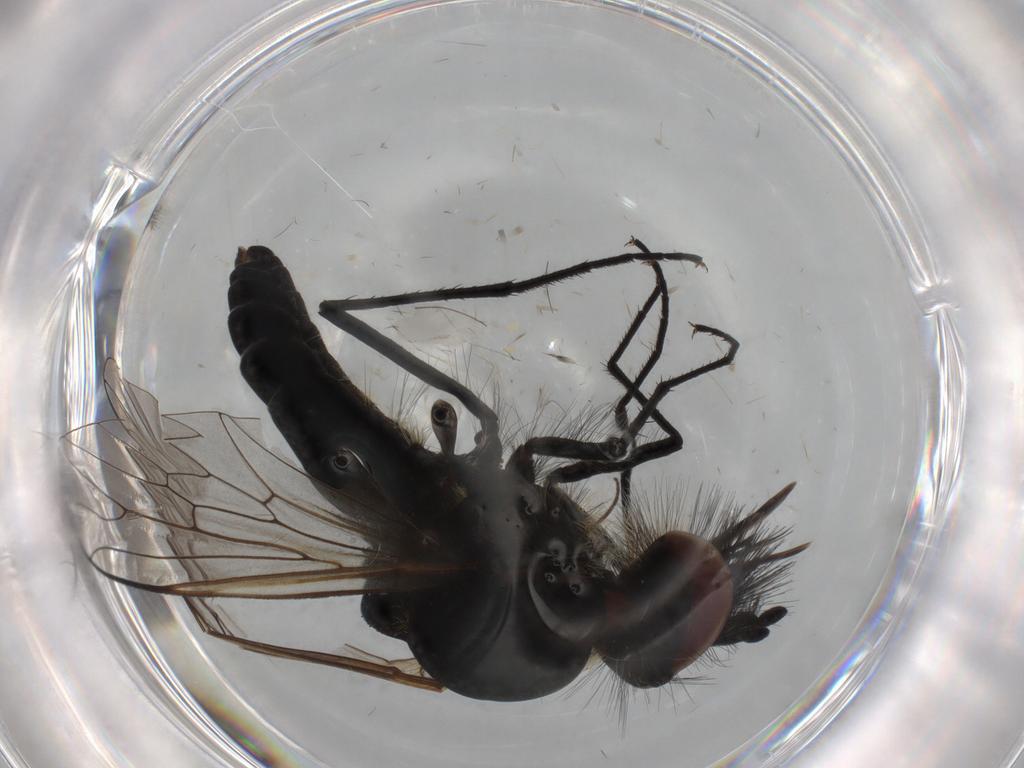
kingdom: Animalia
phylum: Arthropoda
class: Insecta
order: Diptera
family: Bombyliidae
